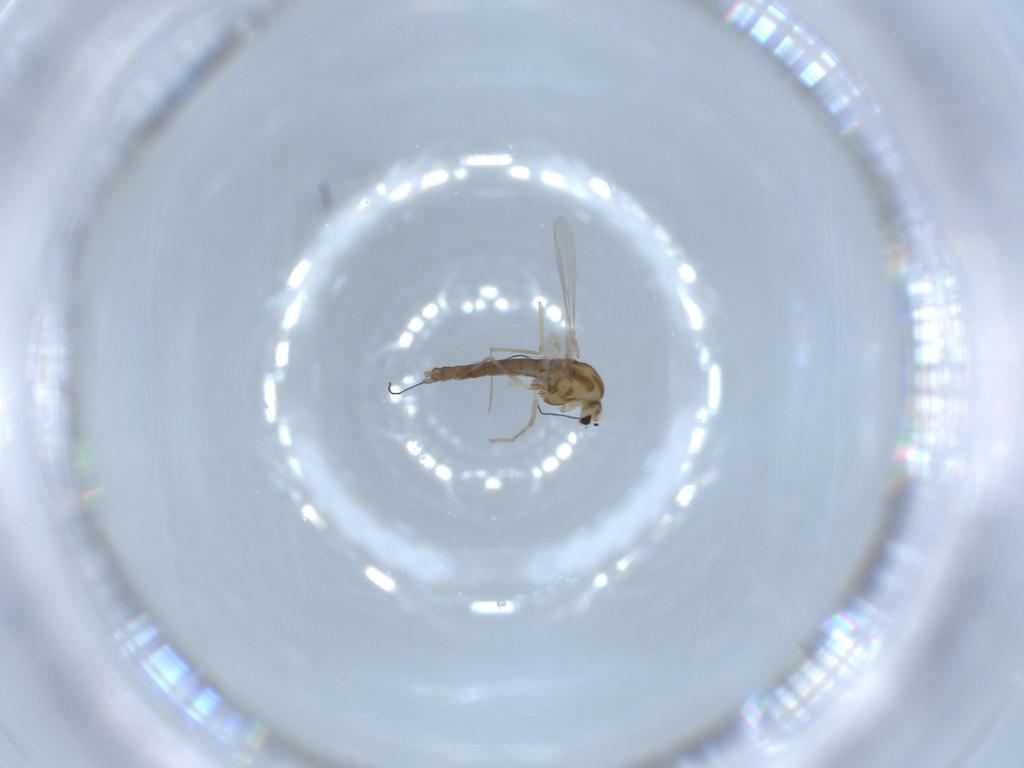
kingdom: Animalia
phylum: Arthropoda
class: Insecta
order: Diptera
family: Chironomidae
